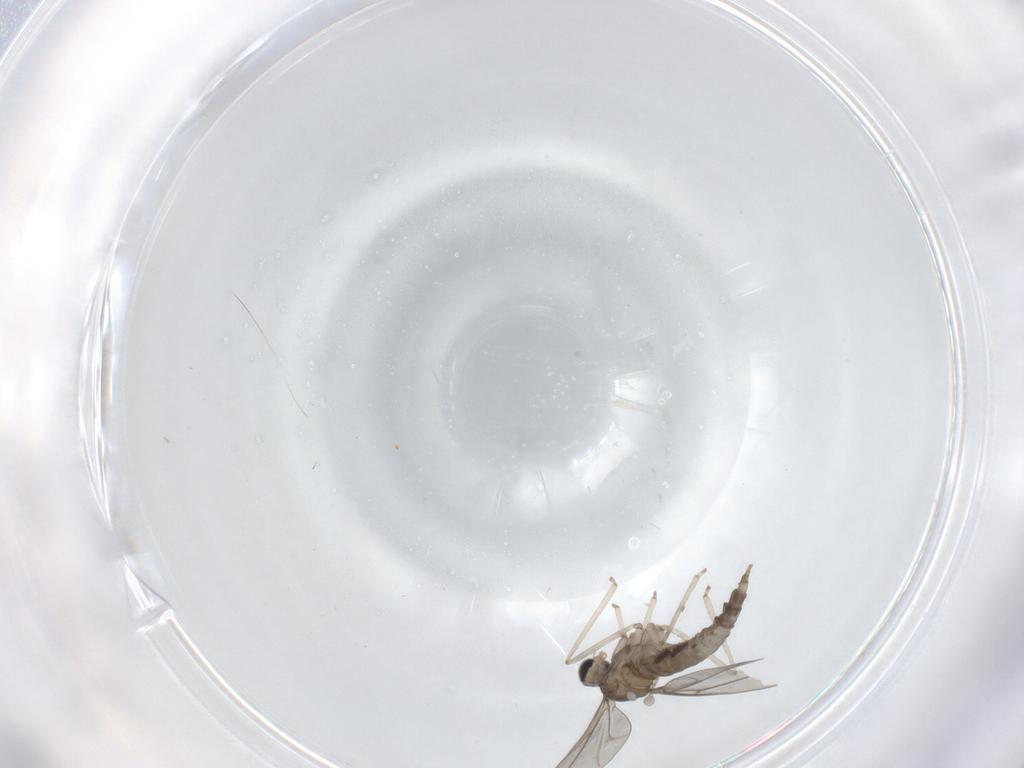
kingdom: Animalia
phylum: Arthropoda
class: Insecta
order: Diptera
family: Cecidomyiidae
